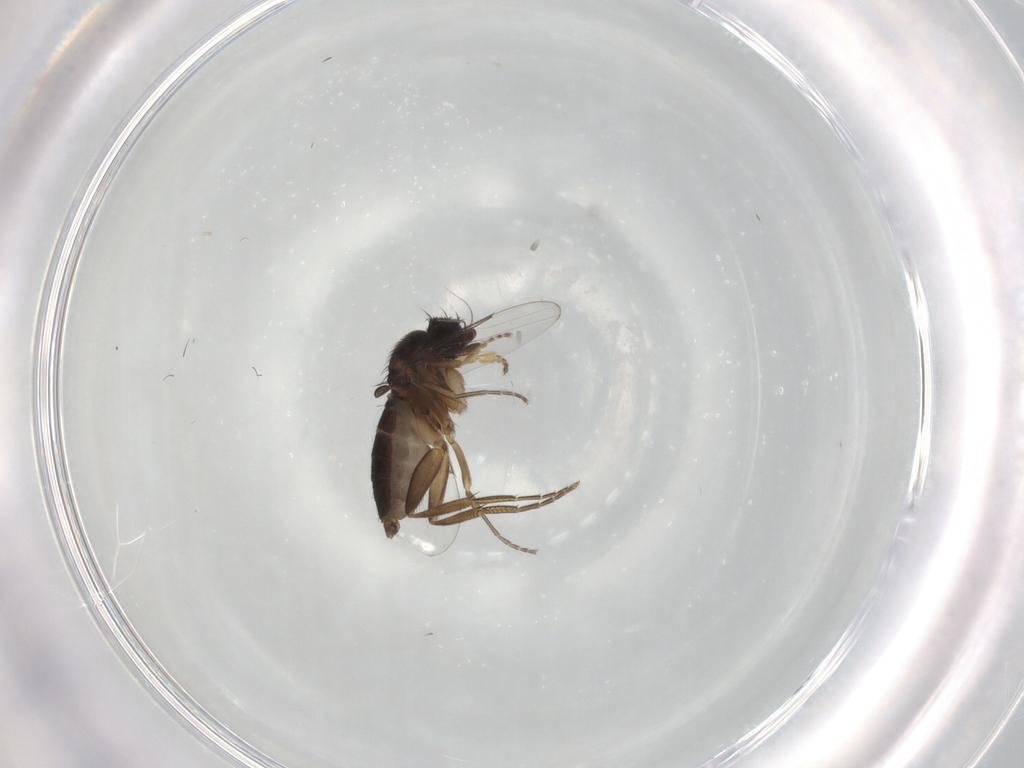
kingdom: Animalia
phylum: Arthropoda
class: Insecta
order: Diptera
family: Phoridae
